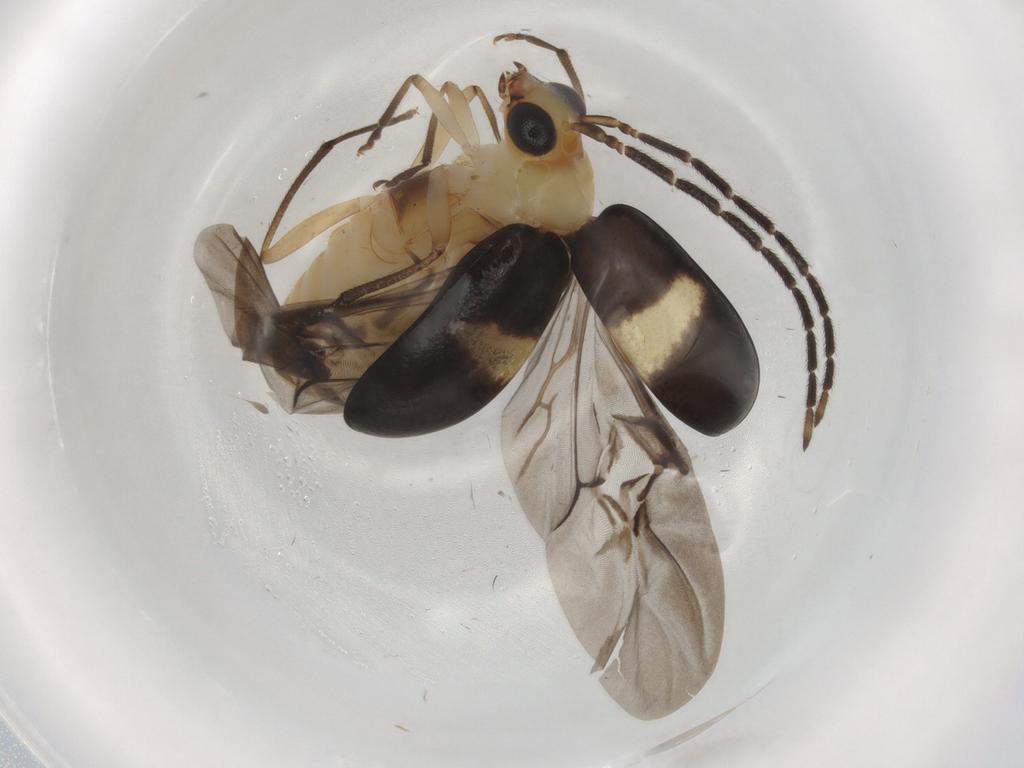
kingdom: Animalia
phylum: Arthropoda
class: Insecta
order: Coleoptera
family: Chrysomelidae
